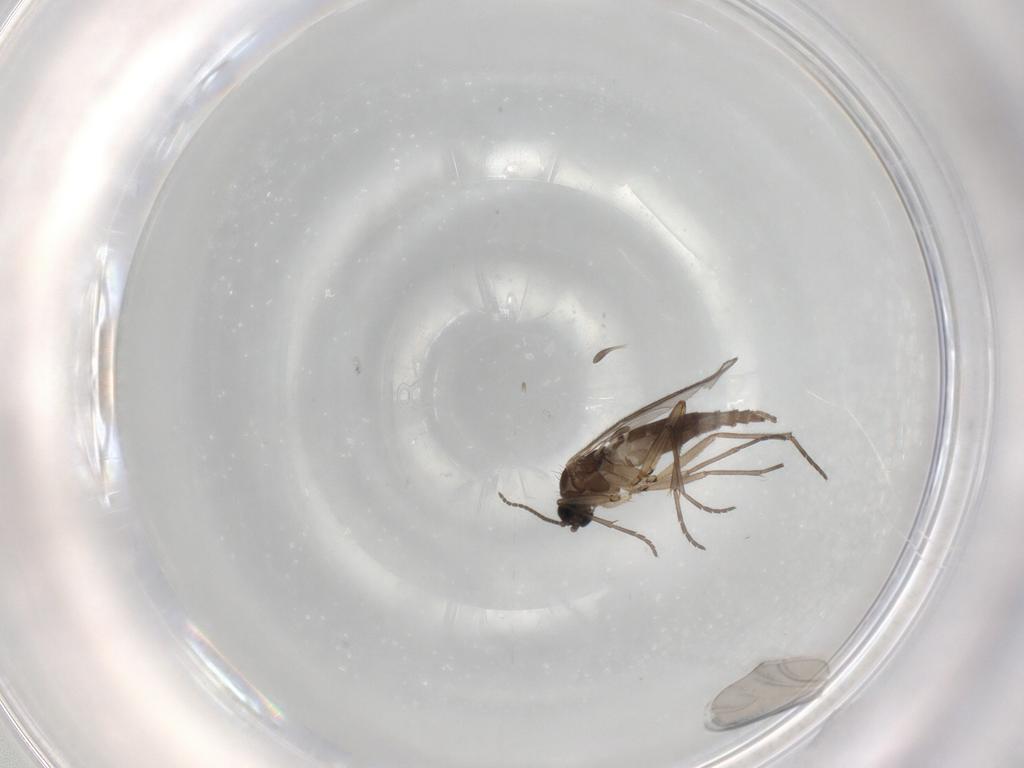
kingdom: Animalia
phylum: Arthropoda
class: Insecta
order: Diptera
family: Sciaridae
